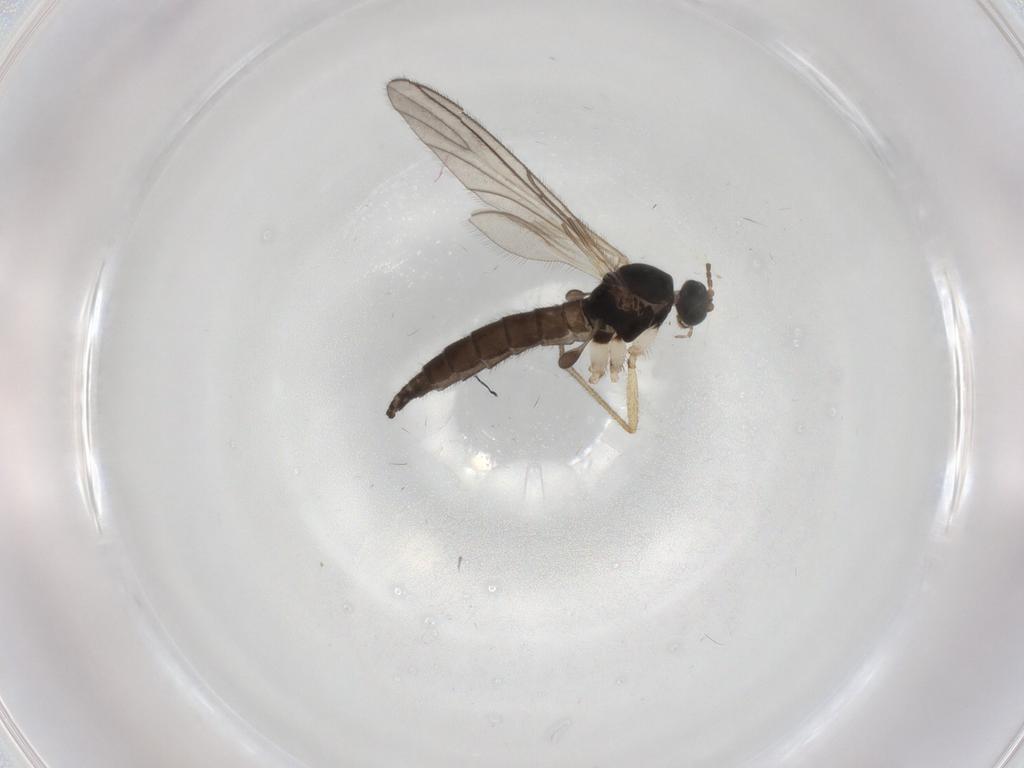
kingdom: Animalia
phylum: Arthropoda
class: Insecta
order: Diptera
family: Sciaridae
